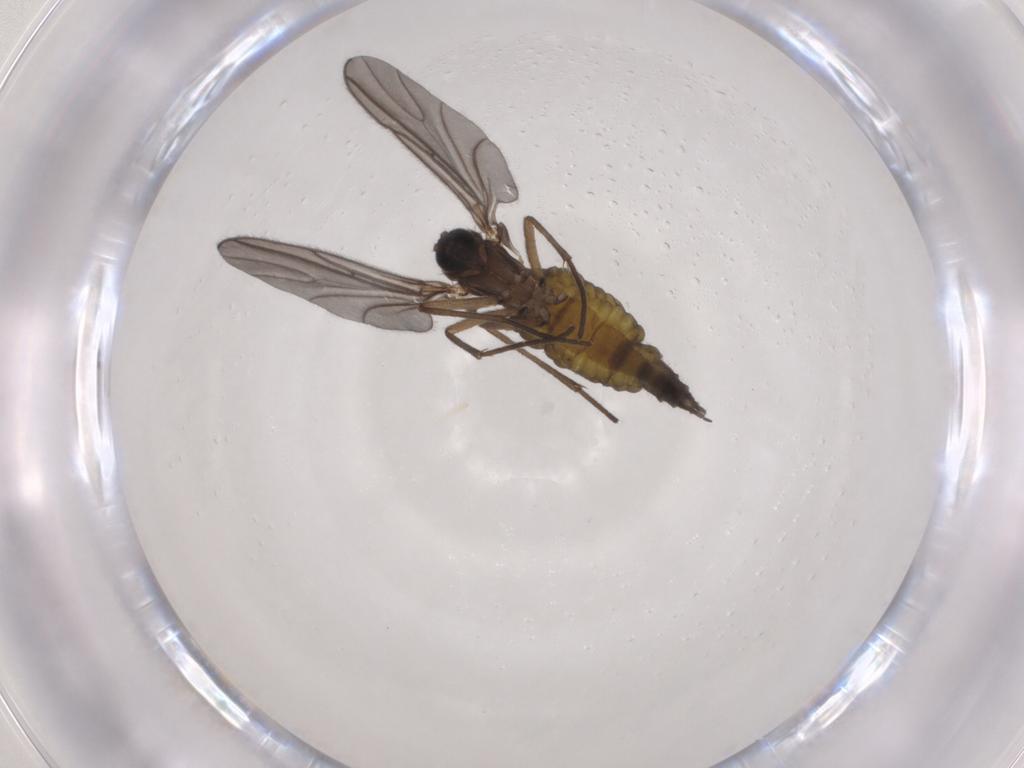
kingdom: Animalia
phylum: Arthropoda
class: Insecta
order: Diptera
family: Sciaridae
